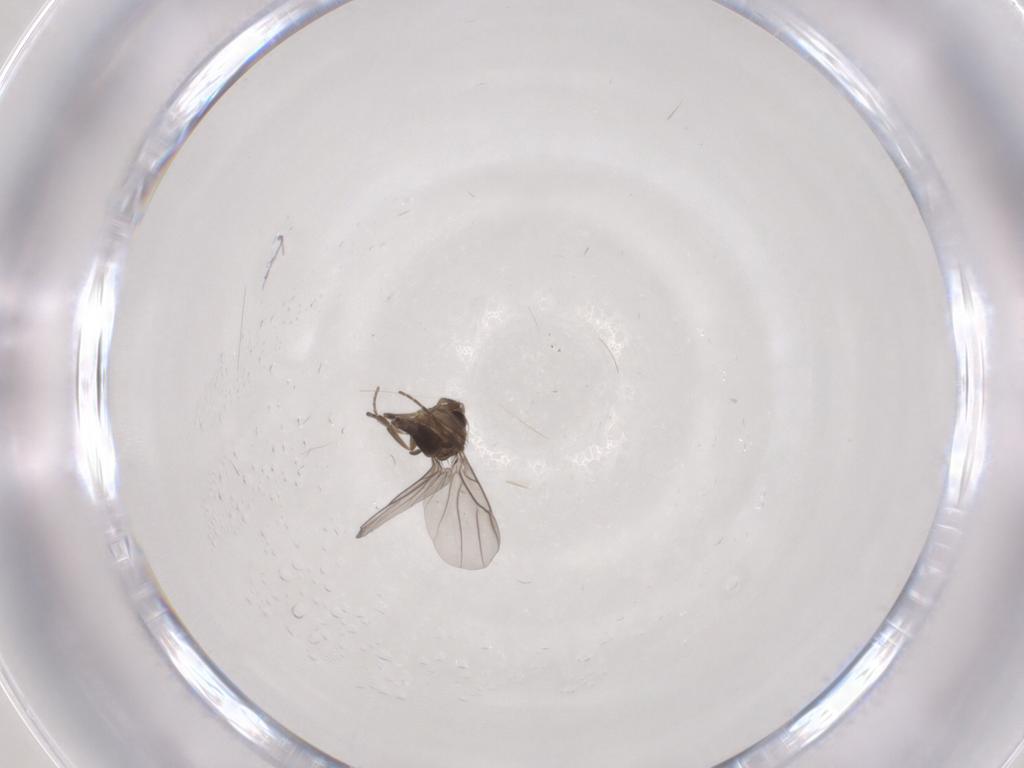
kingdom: Animalia
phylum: Arthropoda
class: Insecta
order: Diptera
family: Phoridae
